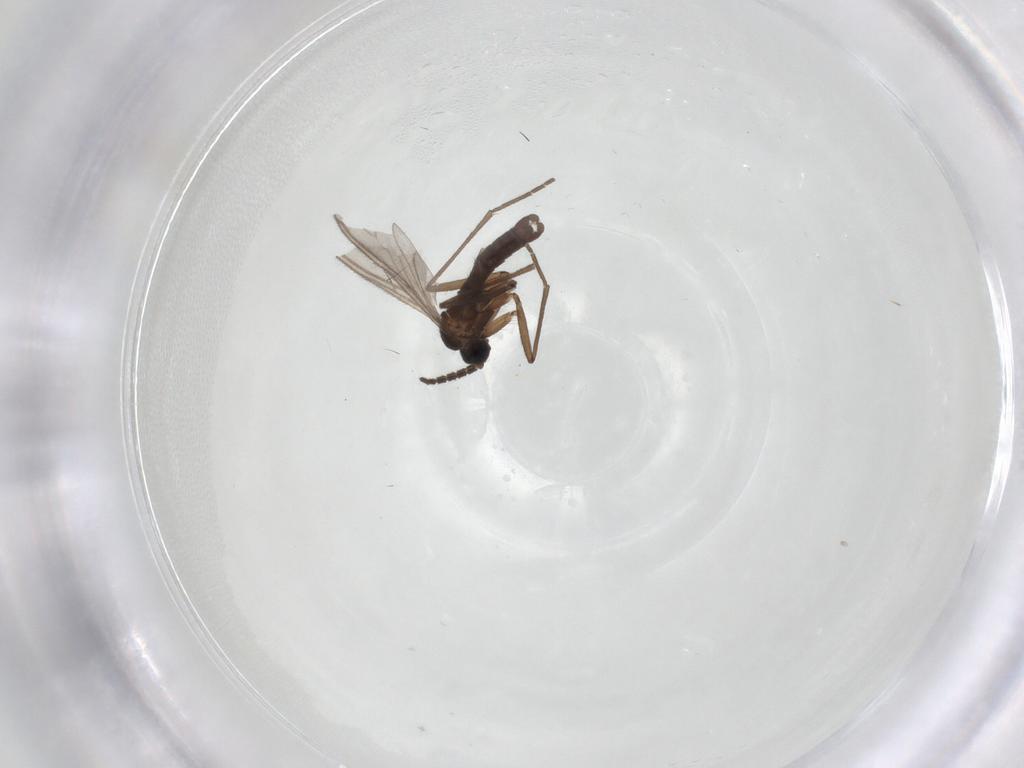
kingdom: Animalia
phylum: Arthropoda
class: Insecta
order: Diptera
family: Sciaridae
